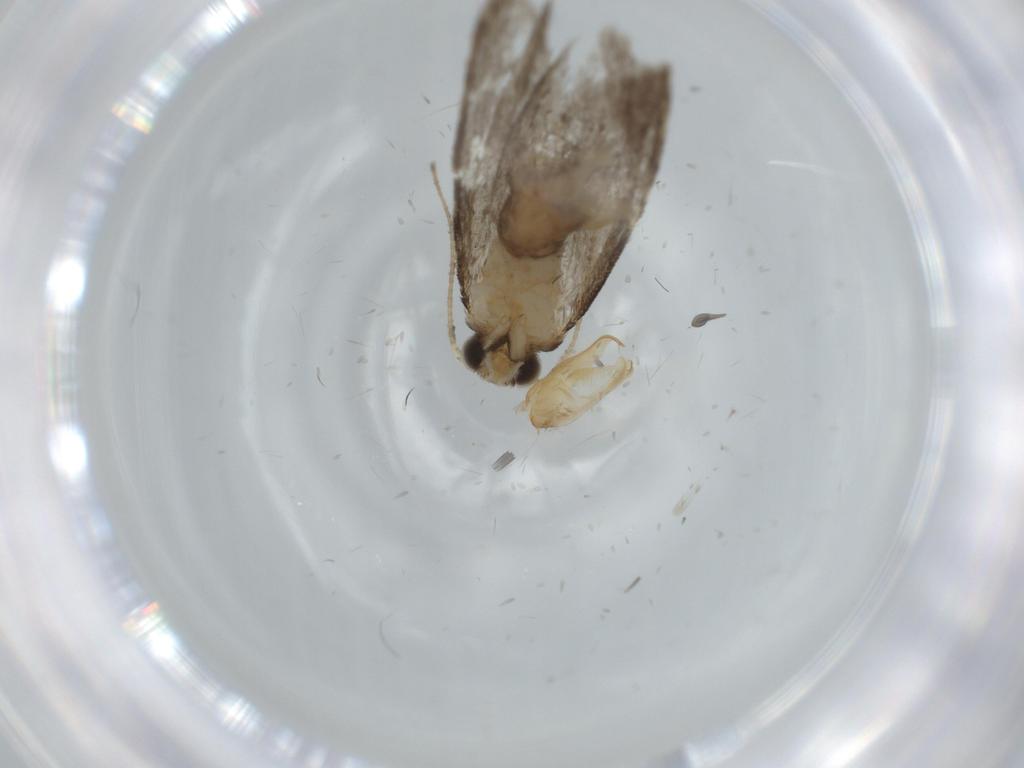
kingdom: Animalia
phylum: Arthropoda
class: Insecta
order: Lepidoptera
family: Tineidae
